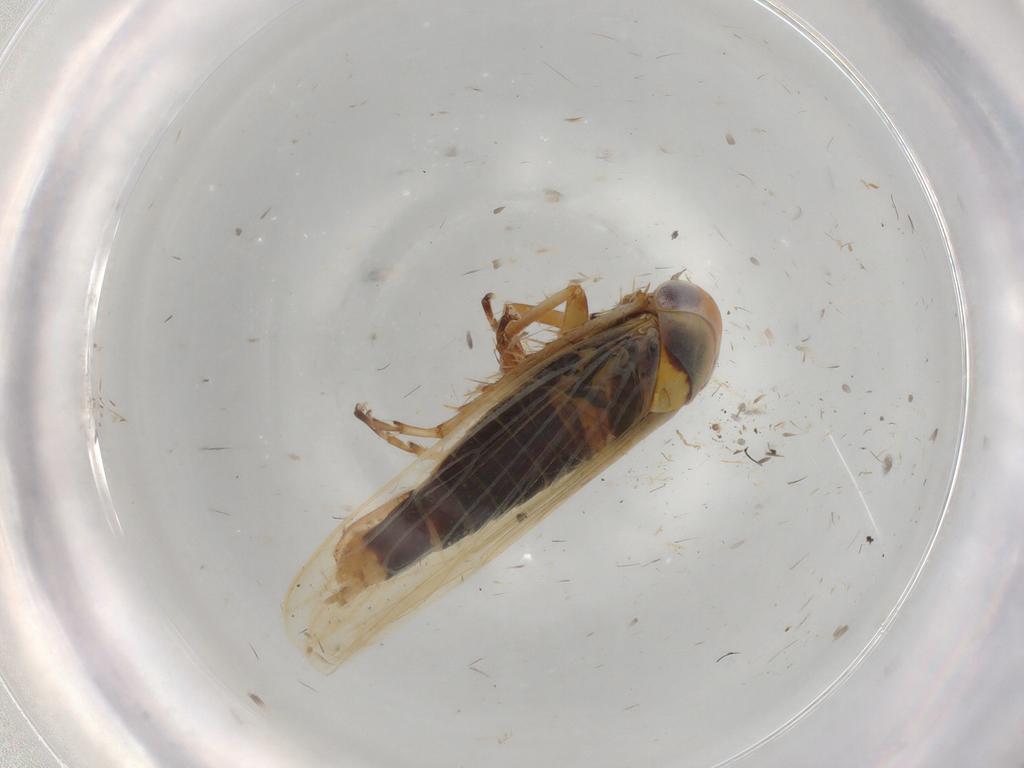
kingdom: Animalia
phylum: Arthropoda
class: Insecta
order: Hemiptera
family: Cicadellidae
